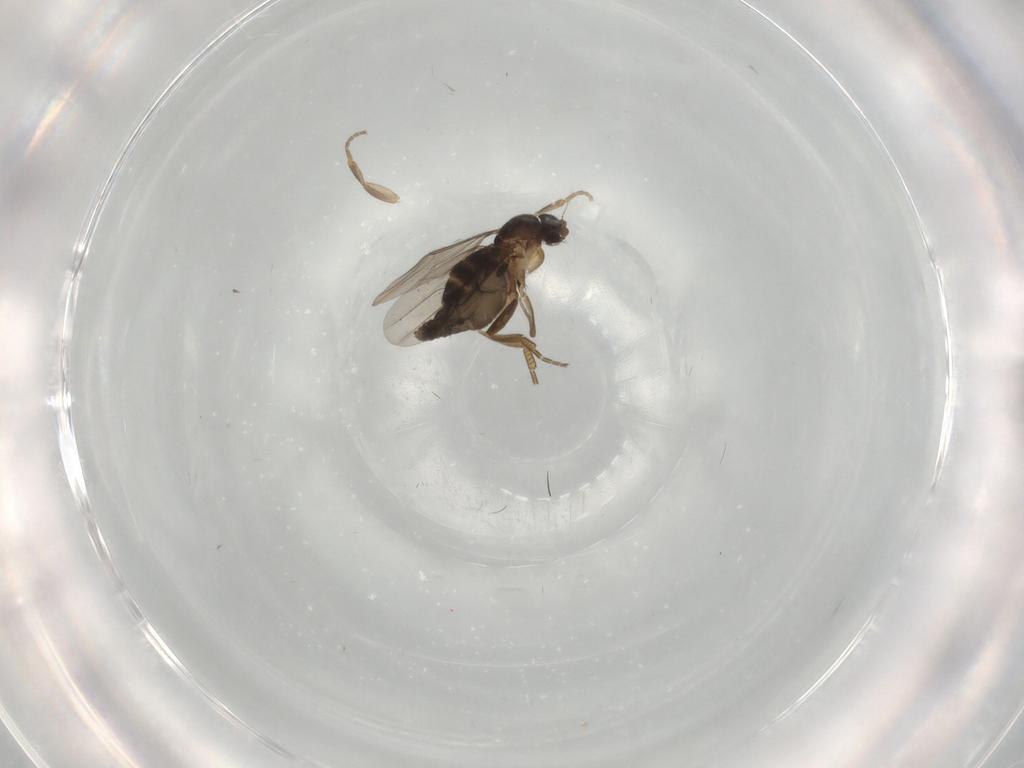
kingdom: Animalia
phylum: Arthropoda
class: Insecta
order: Diptera
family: Phoridae
